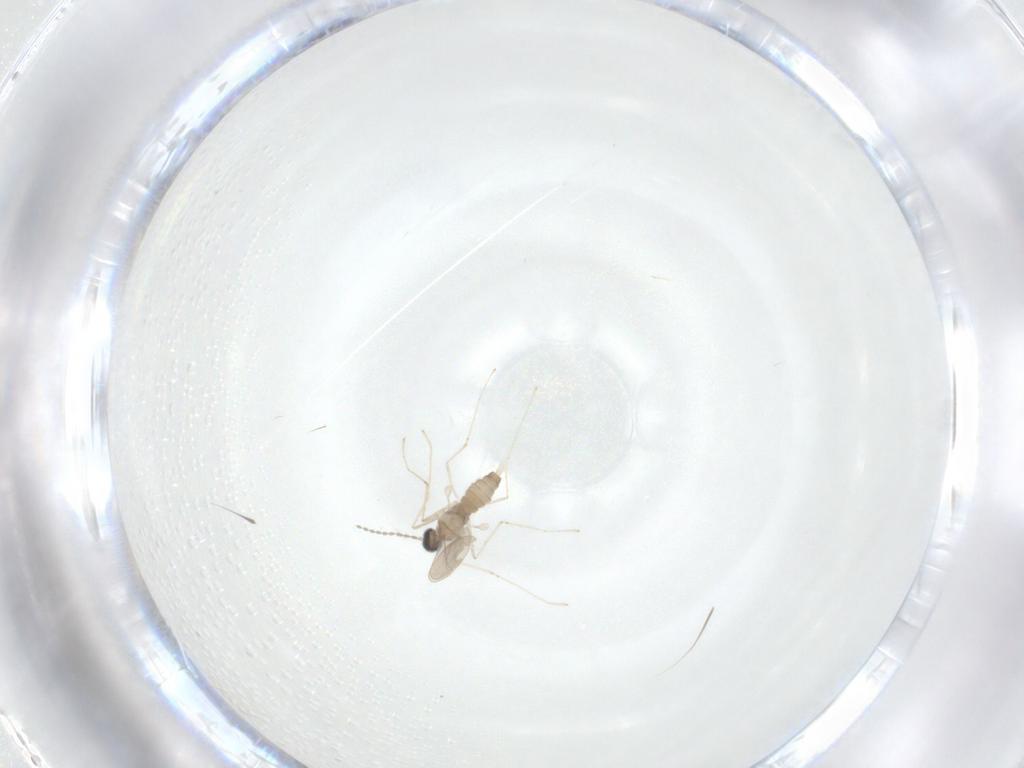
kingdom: Animalia
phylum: Arthropoda
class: Insecta
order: Diptera
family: Cecidomyiidae
